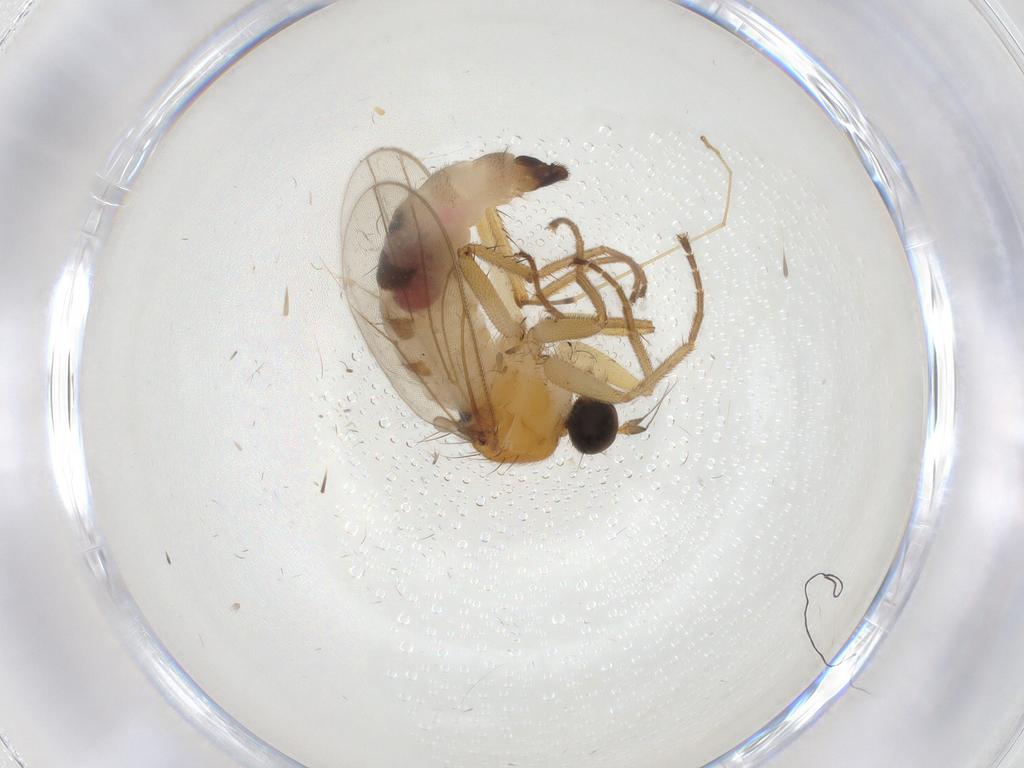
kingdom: Animalia
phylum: Arthropoda
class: Insecta
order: Diptera
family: Hybotidae
